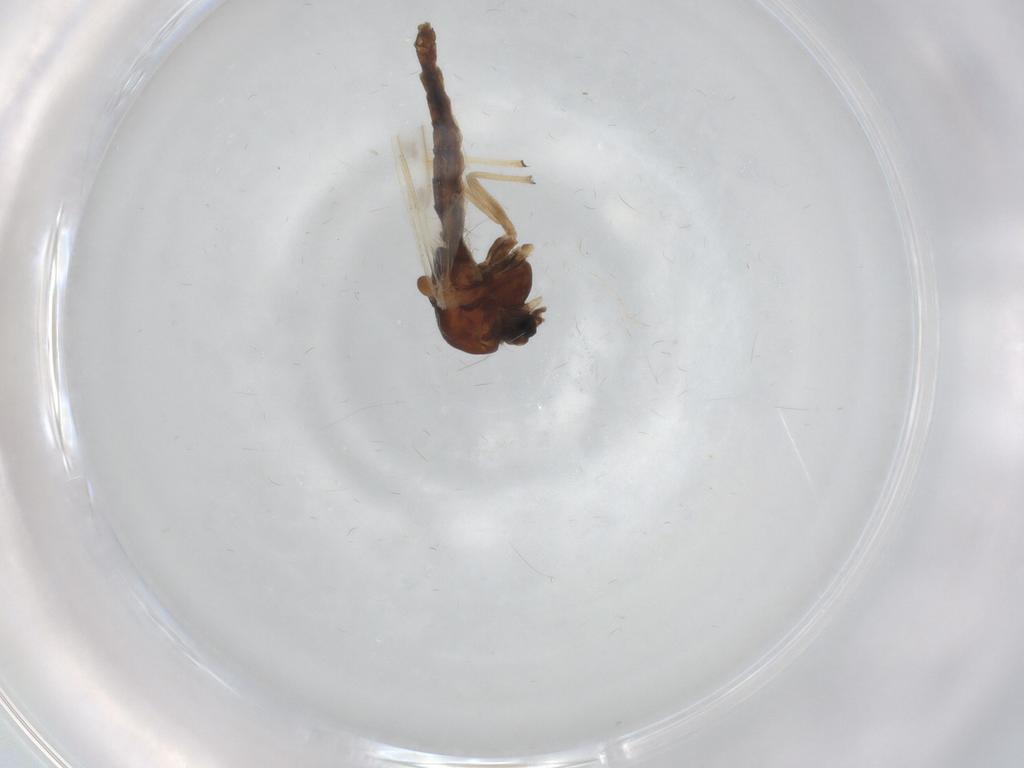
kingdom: Animalia
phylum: Arthropoda
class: Insecta
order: Diptera
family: Chironomidae
